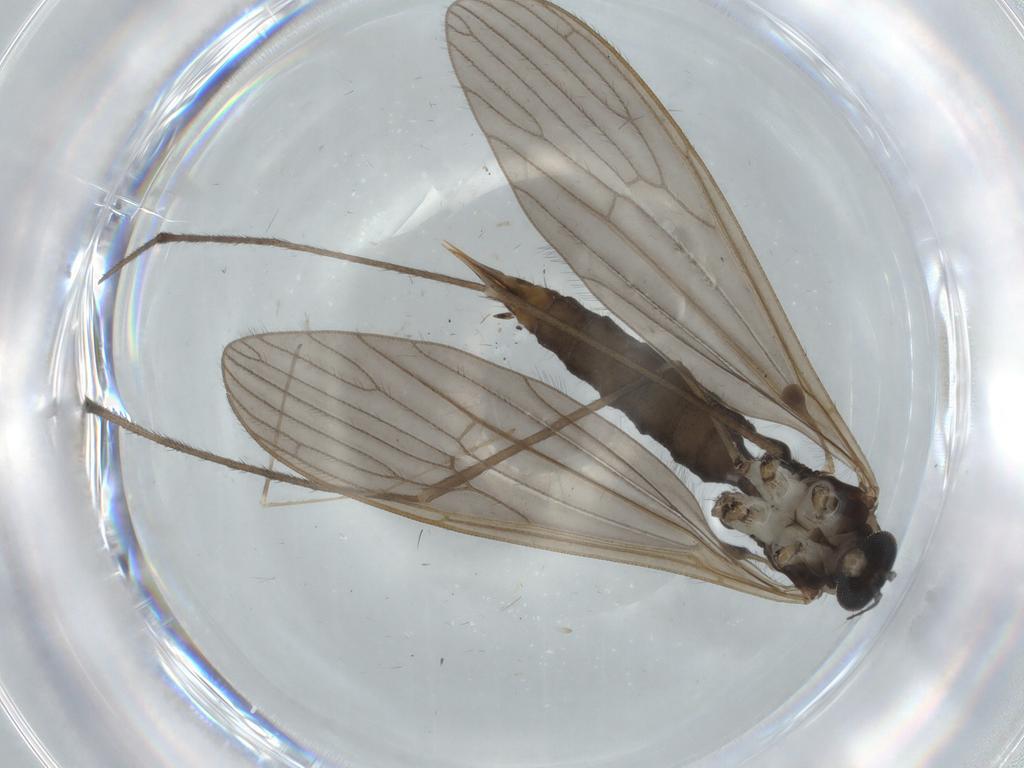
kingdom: Animalia
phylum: Arthropoda
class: Insecta
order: Diptera
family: Limoniidae
